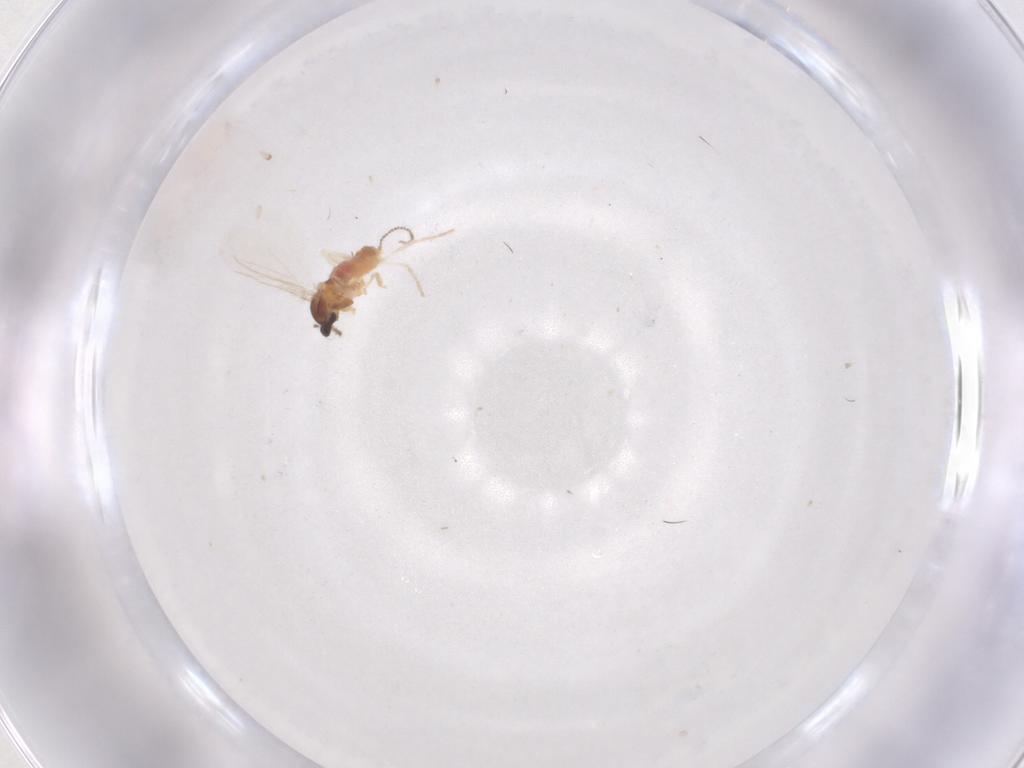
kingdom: Animalia
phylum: Arthropoda
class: Insecta
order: Diptera
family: Cecidomyiidae
